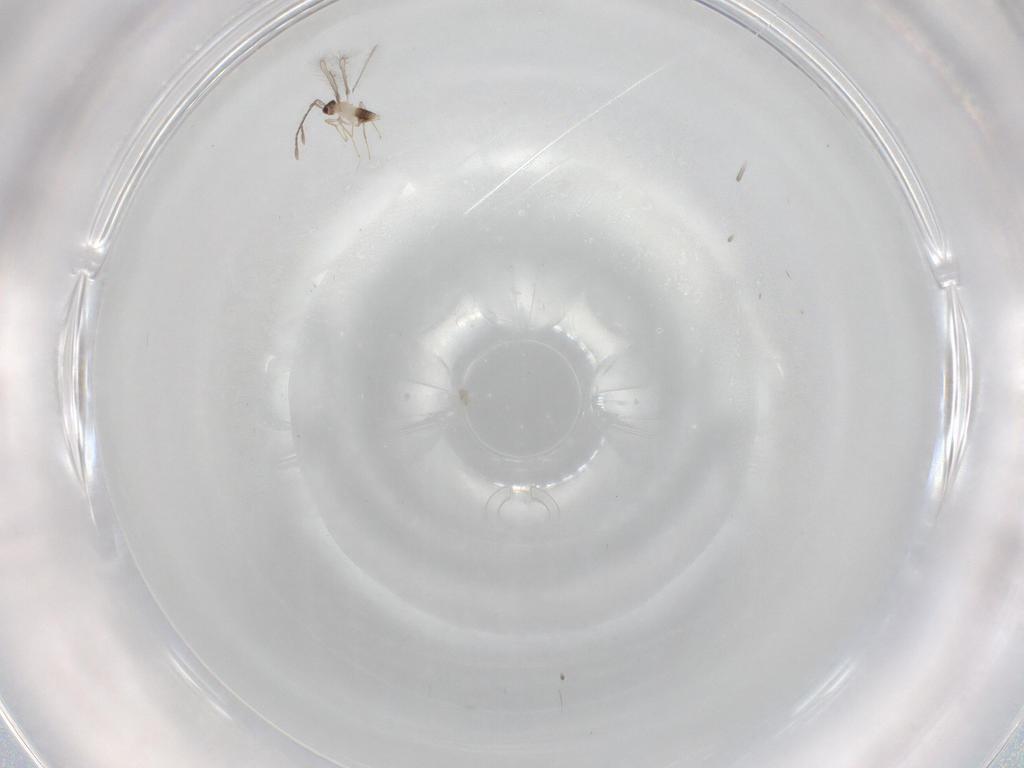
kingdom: Animalia
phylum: Arthropoda
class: Insecta
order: Hymenoptera
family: Mymaridae
